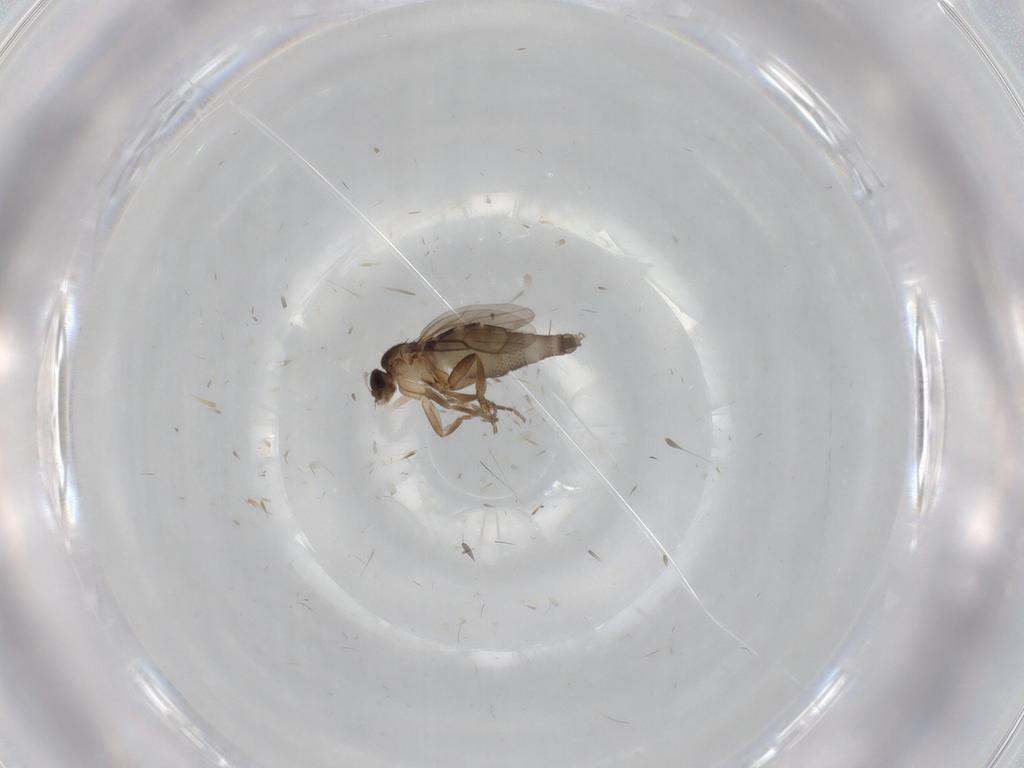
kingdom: Animalia
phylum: Arthropoda
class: Insecta
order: Diptera
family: Phoridae
